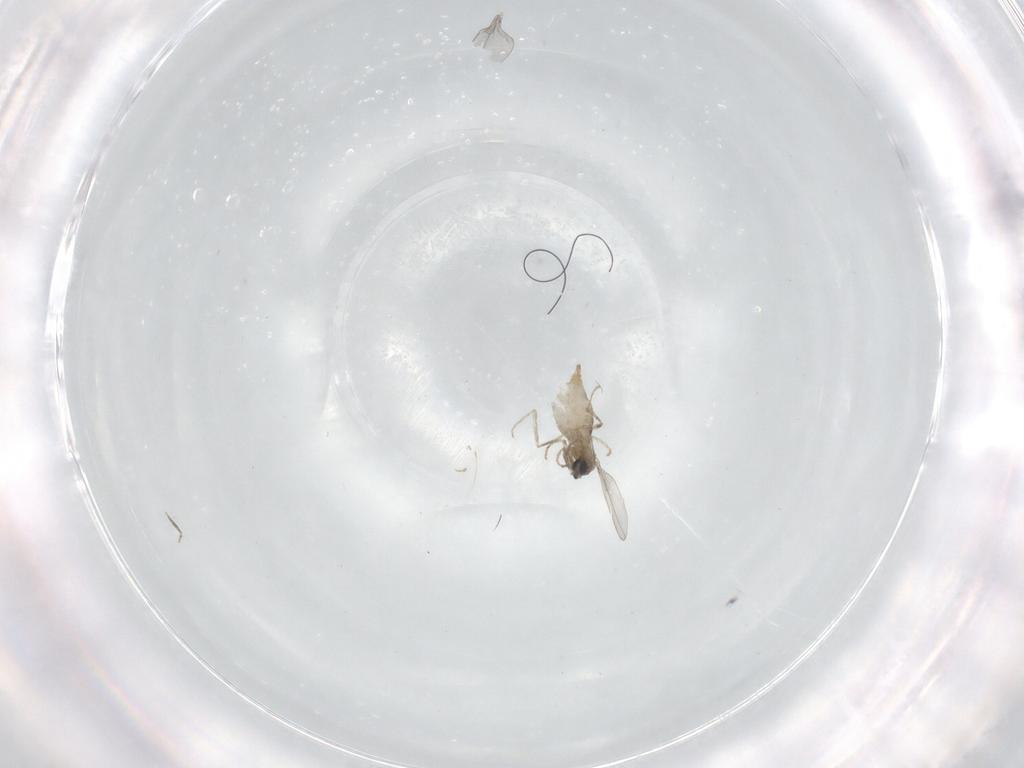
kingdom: Animalia
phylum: Arthropoda
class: Insecta
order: Diptera
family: Cecidomyiidae
